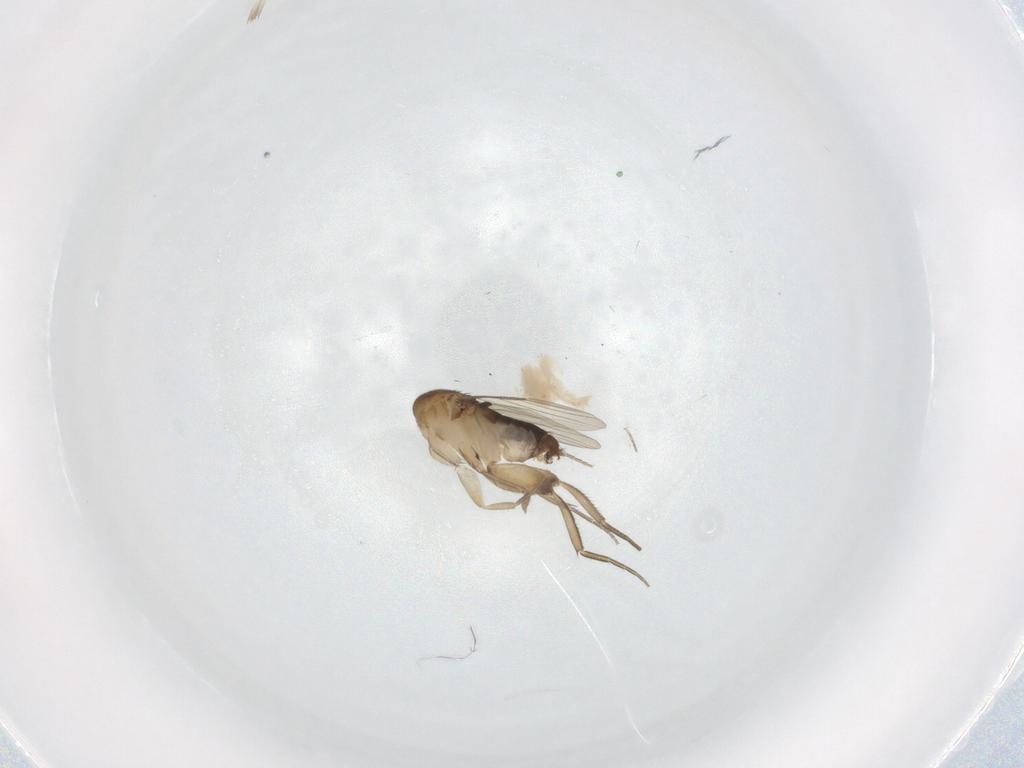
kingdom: Animalia
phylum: Arthropoda
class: Insecta
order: Diptera
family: Phoridae
